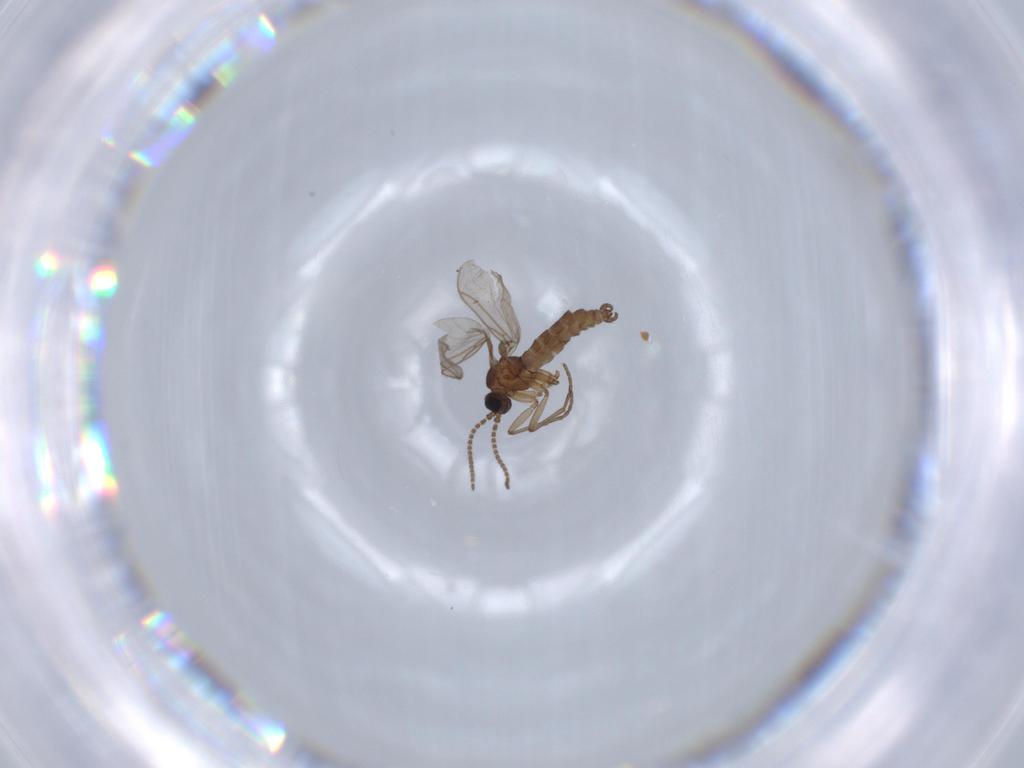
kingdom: Animalia
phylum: Arthropoda
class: Insecta
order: Diptera
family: Sciaridae
